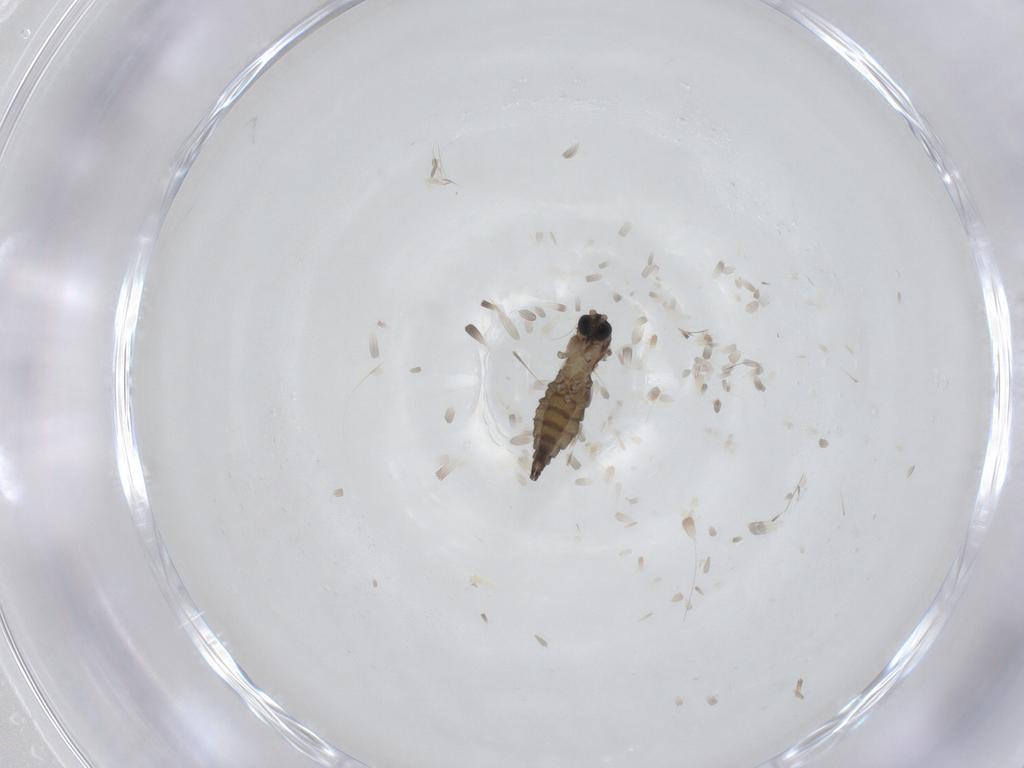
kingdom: Animalia
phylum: Arthropoda
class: Insecta
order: Diptera
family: Sciaridae
